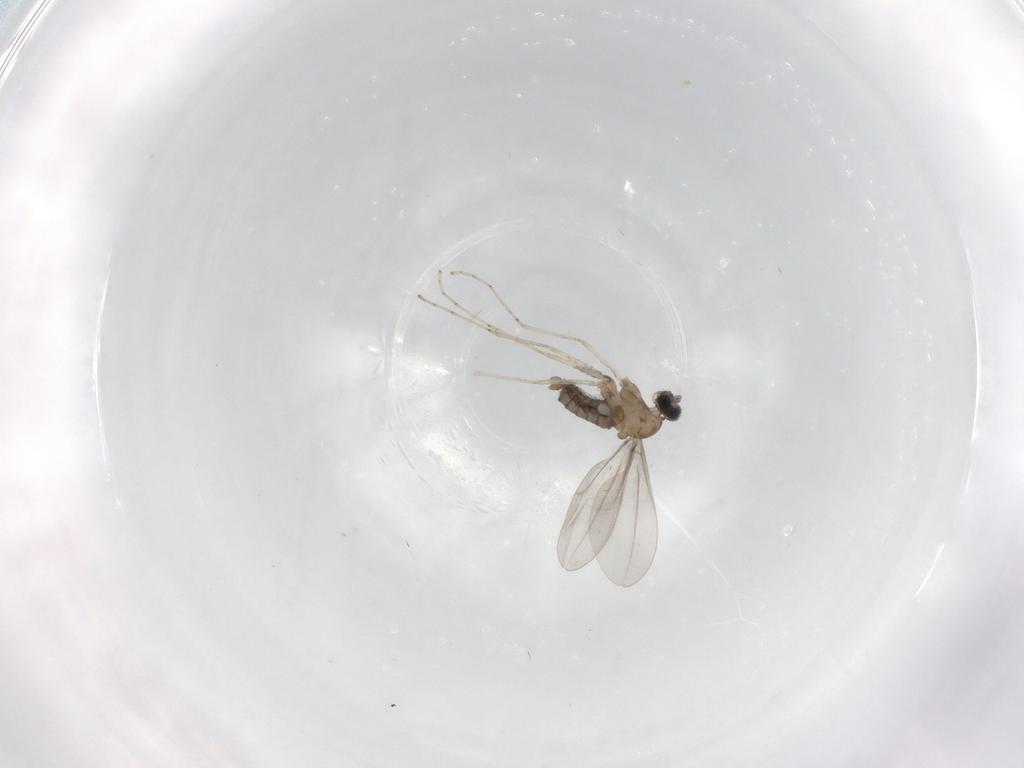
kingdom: Animalia
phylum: Arthropoda
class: Insecta
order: Diptera
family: Cecidomyiidae
